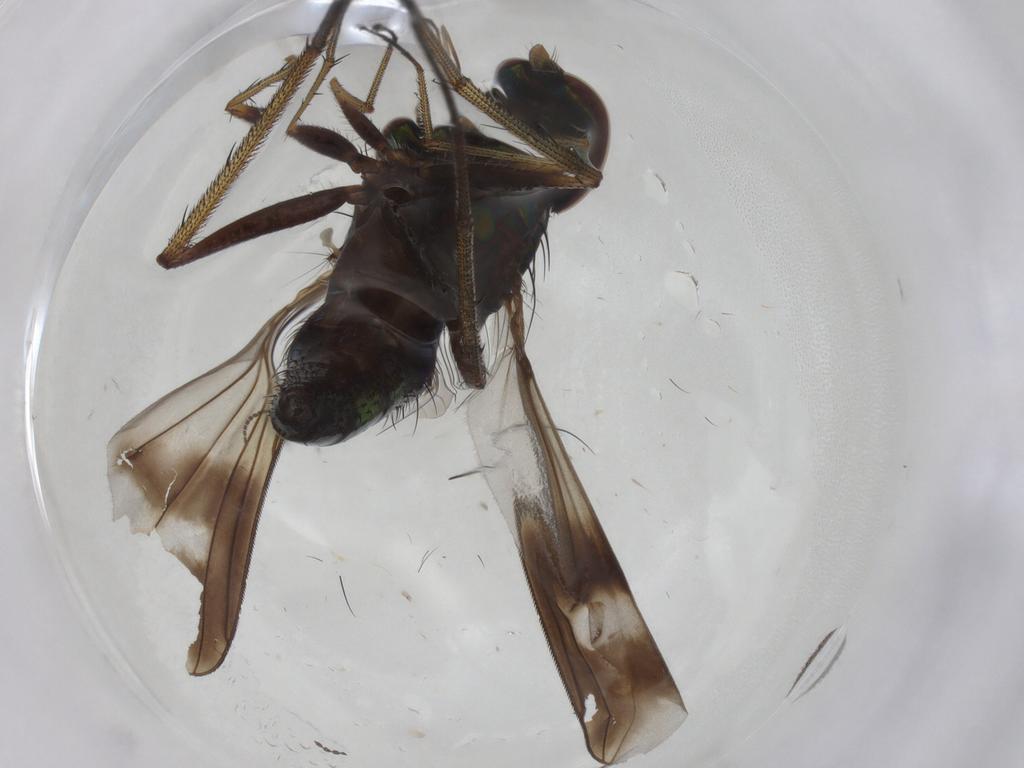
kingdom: Animalia
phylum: Arthropoda
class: Insecta
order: Diptera
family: Dolichopodidae
